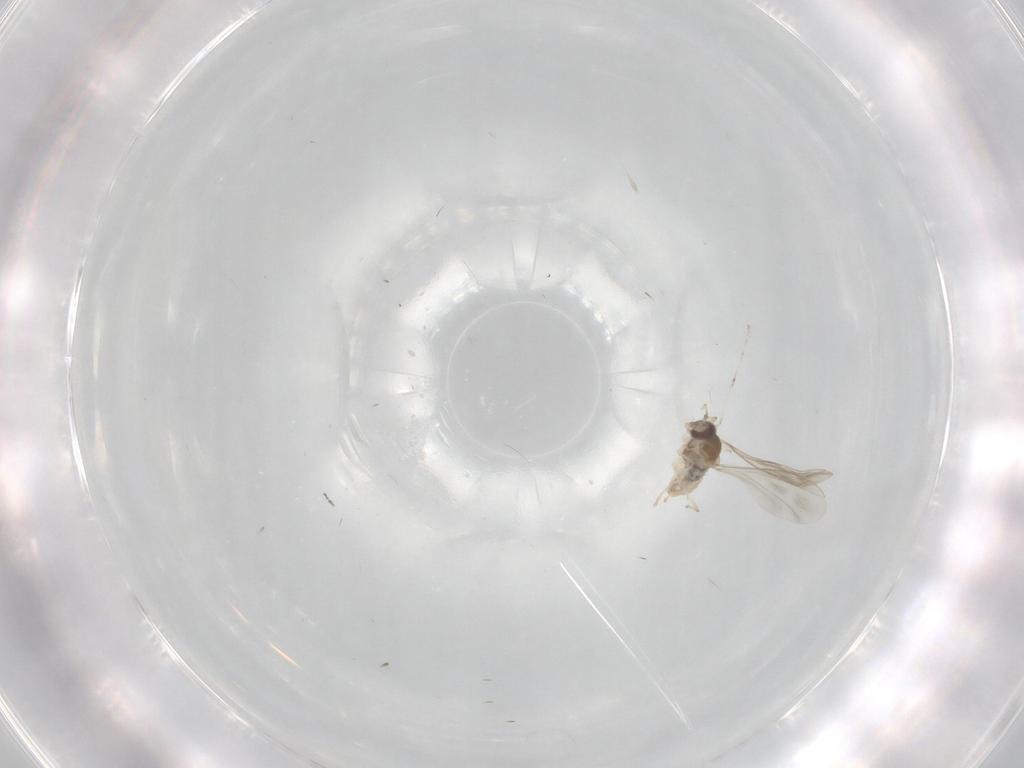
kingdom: Animalia
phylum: Arthropoda
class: Insecta
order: Diptera
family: Cecidomyiidae
